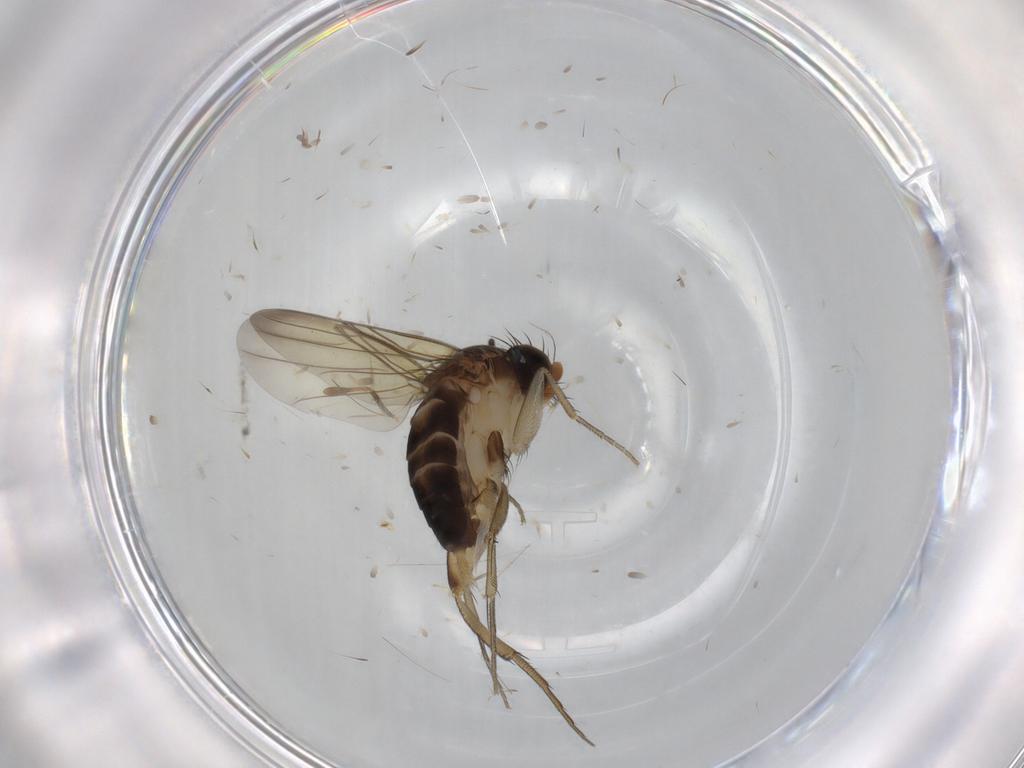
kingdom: Animalia
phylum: Arthropoda
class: Insecta
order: Diptera
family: Phoridae
